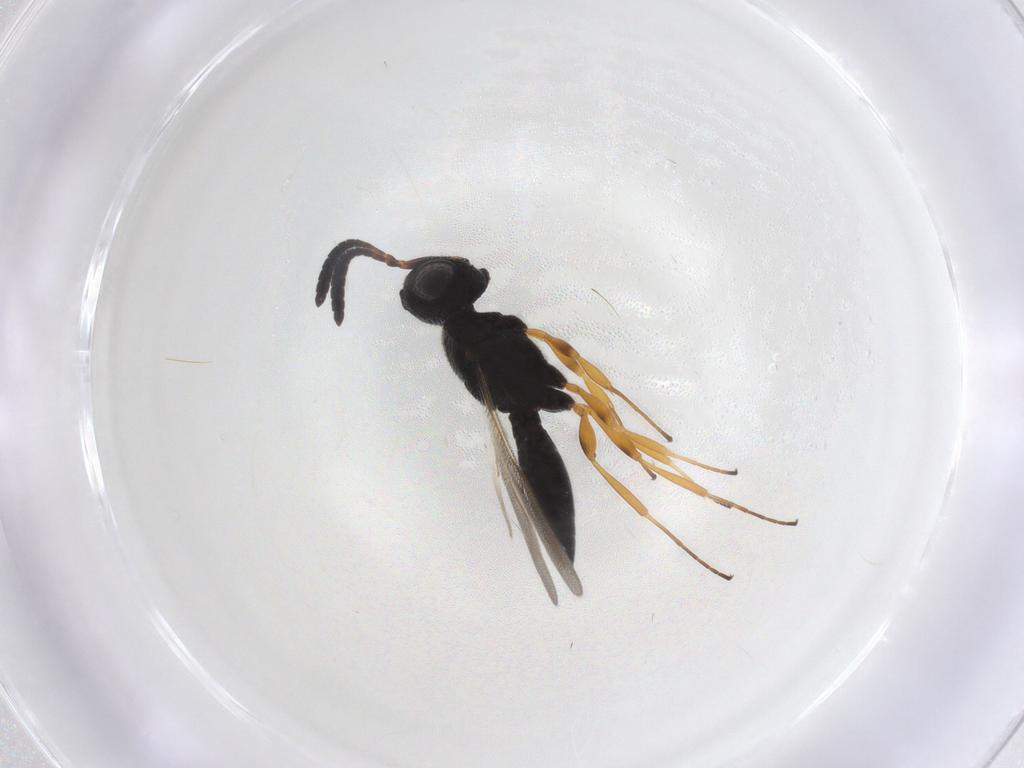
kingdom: Animalia
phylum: Arthropoda
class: Insecta
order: Hymenoptera
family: Scelionidae
